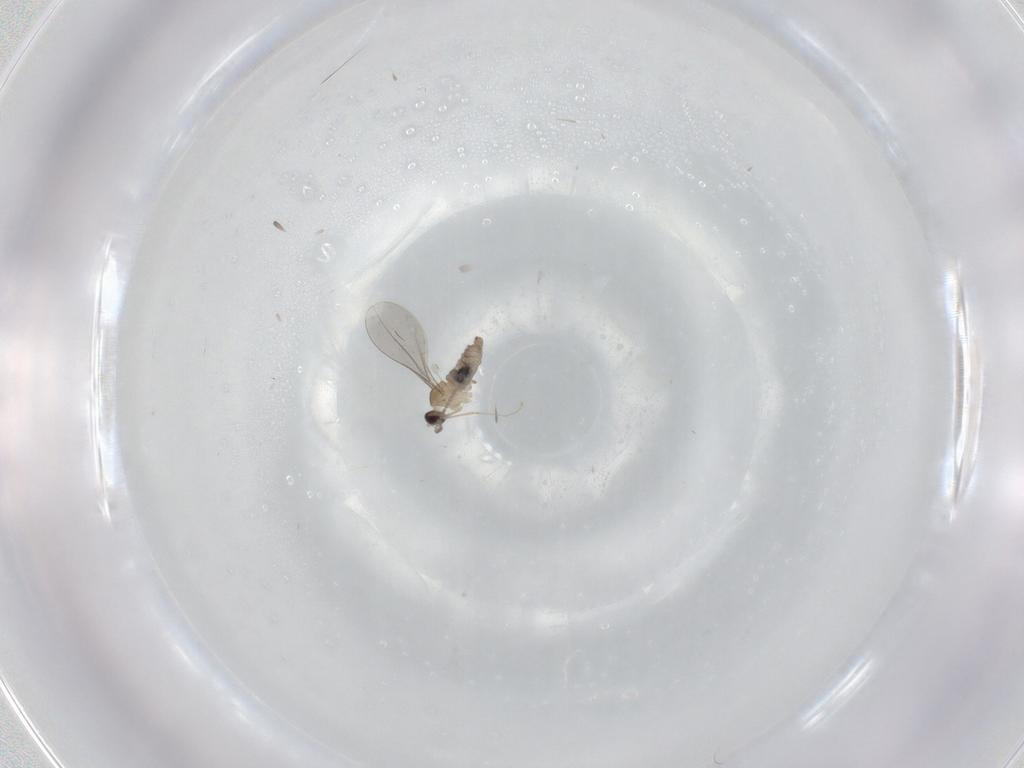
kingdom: Animalia
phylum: Arthropoda
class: Insecta
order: Diptera
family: Cecidomyiidae
